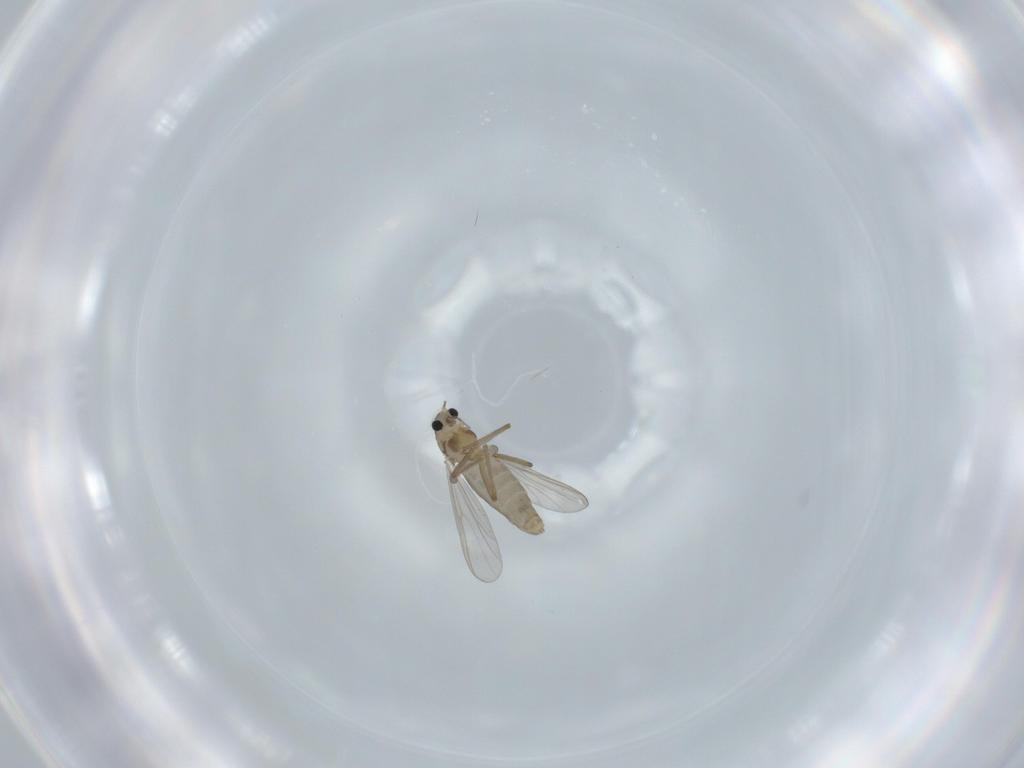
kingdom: Animalia
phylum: Arthropoda
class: Insecta
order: Diptera
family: Chironomidae
